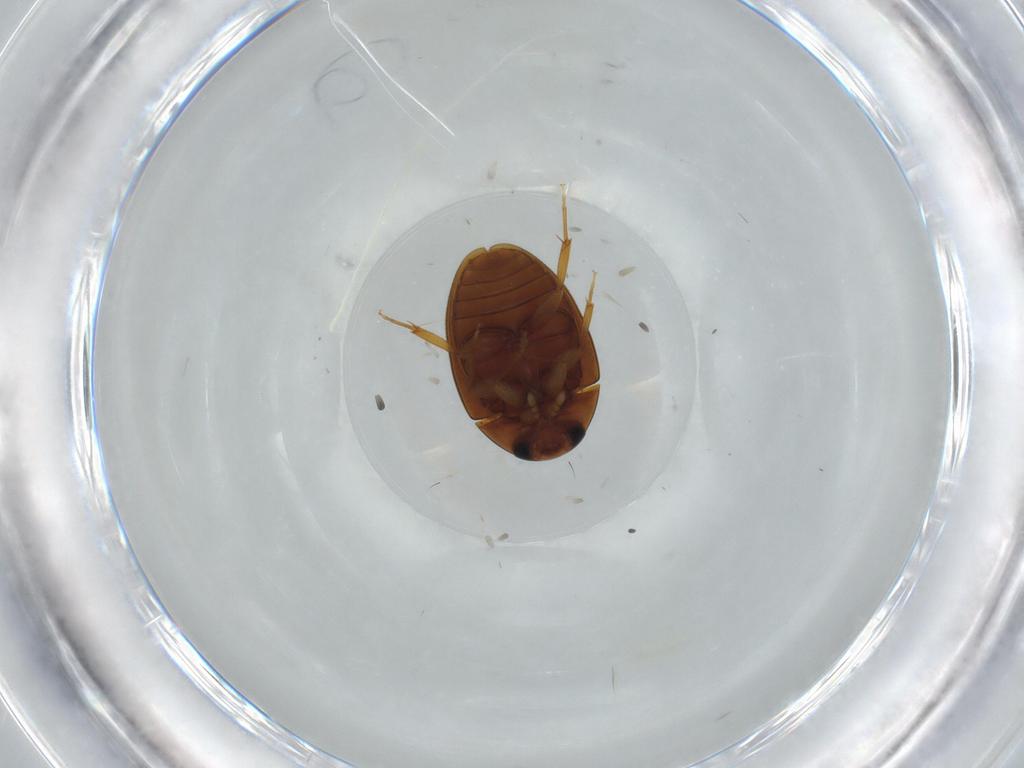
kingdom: Animalia
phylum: Arthropoda
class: Insecta
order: Coleoptera
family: Phalacridae
